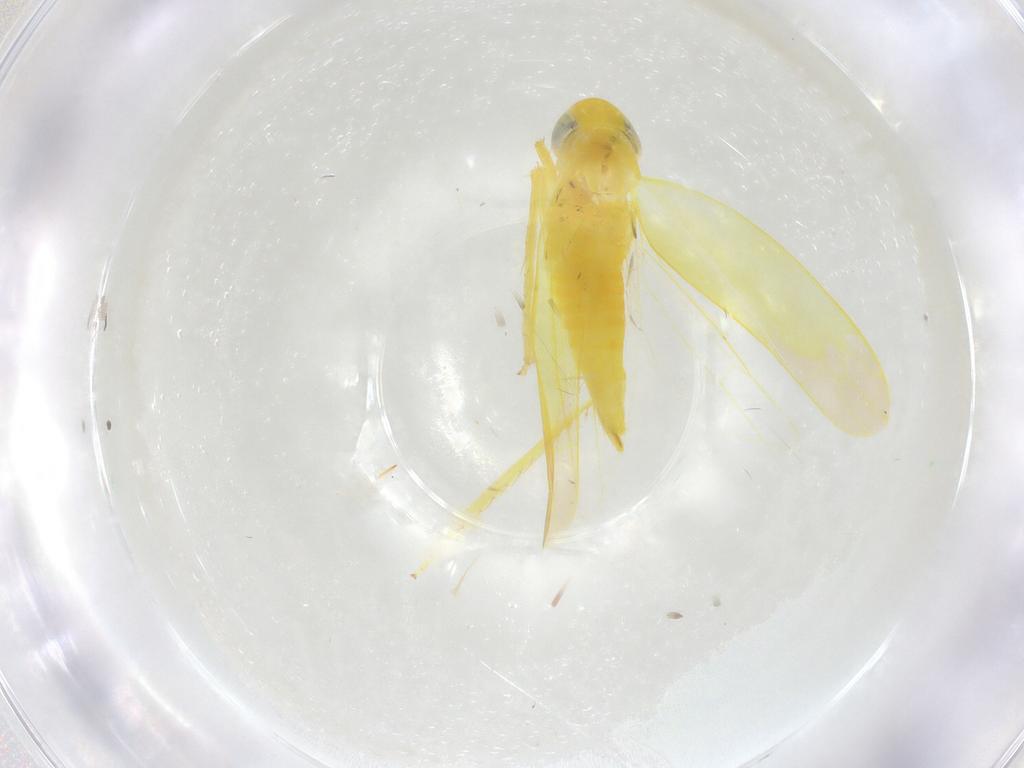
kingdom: Animalia
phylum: Arthropoda
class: Insecta
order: Hemiptera
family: Cicadellidae
